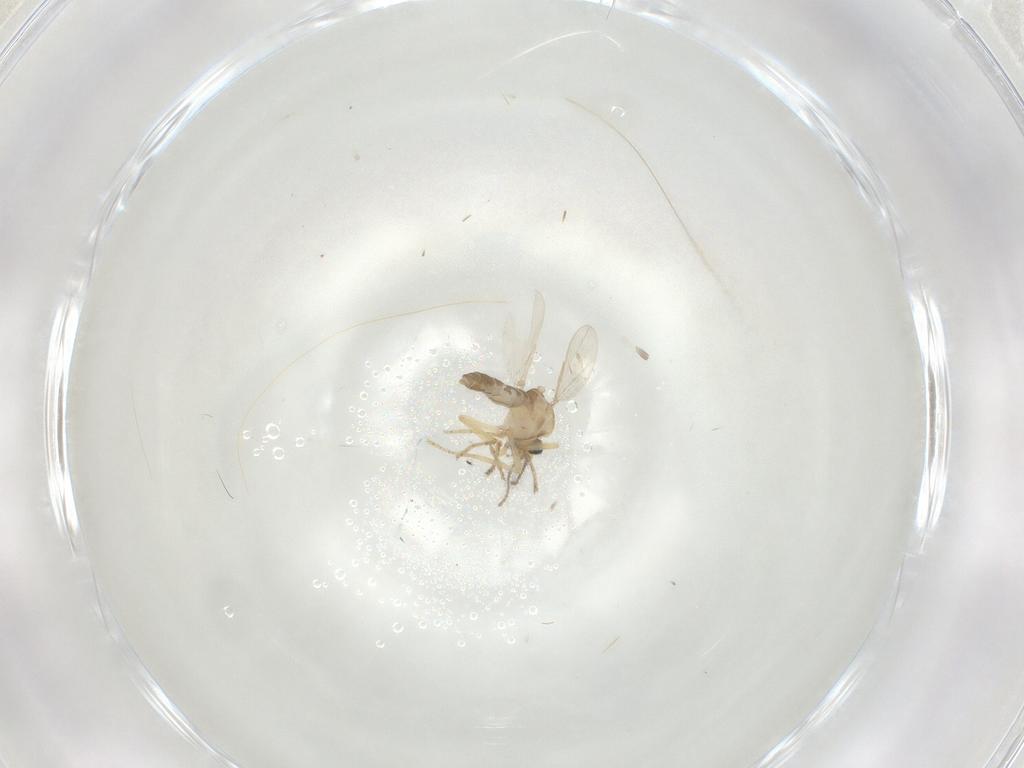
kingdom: Animalia
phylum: Arthropoda
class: Insecta
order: Diptera
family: Ceratopogonidae
